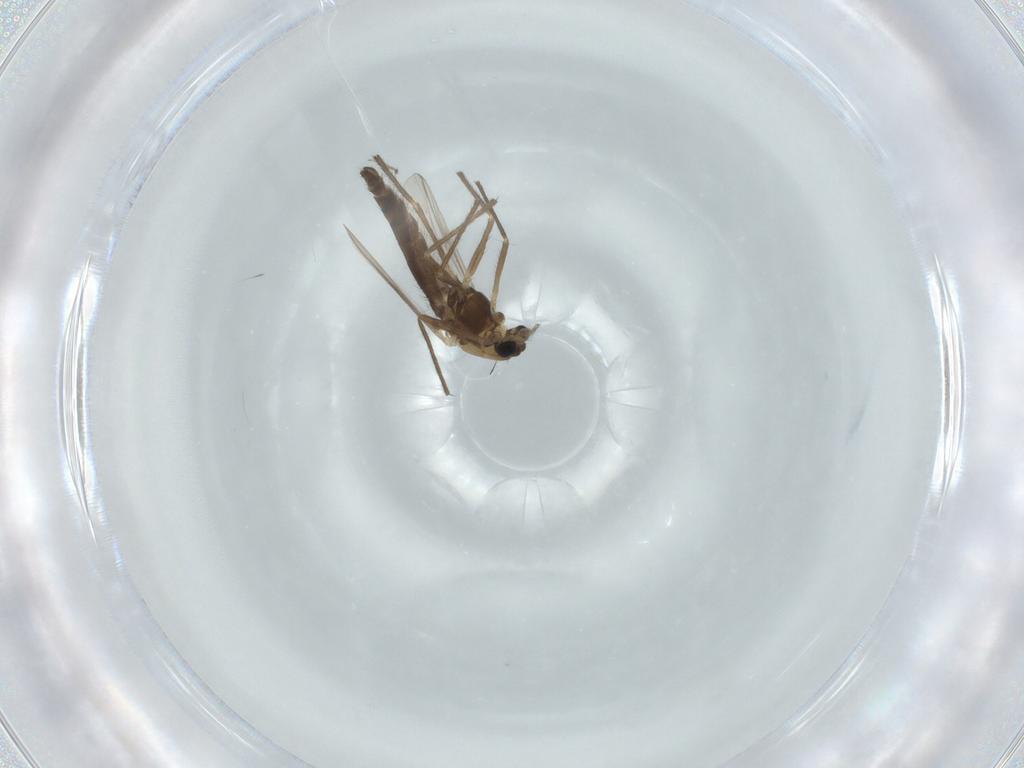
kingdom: Animalia
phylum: Arthropoda
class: Insecta
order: Diptera
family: Chironomidae
